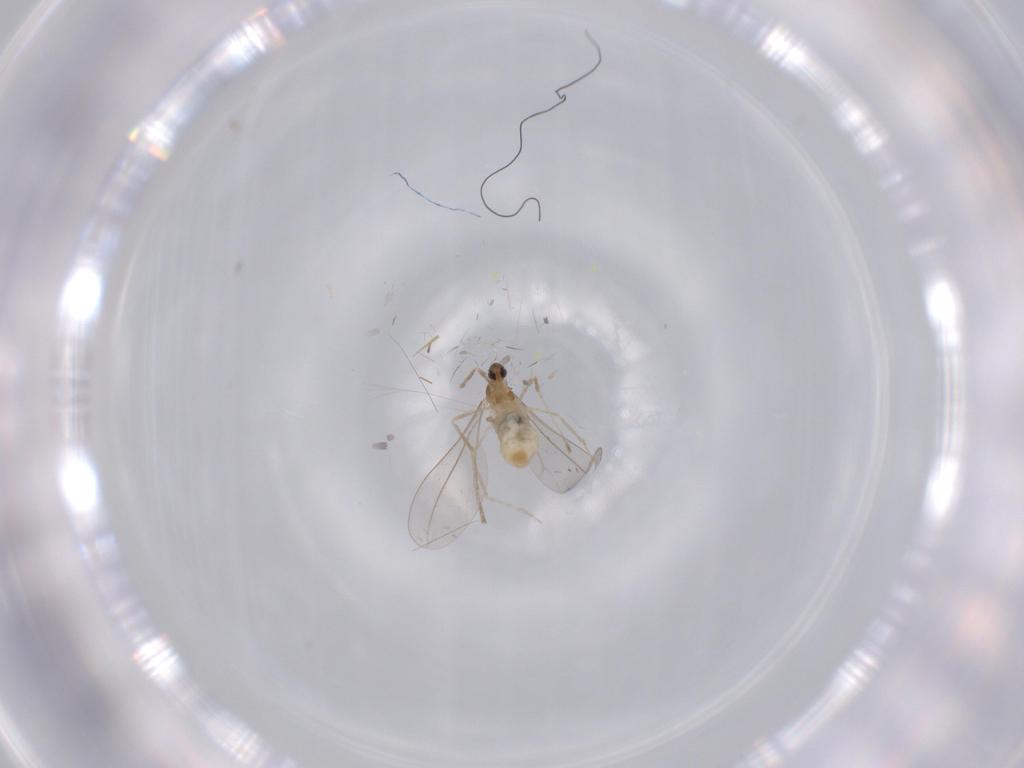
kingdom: Animalia
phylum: Arthropoda
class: Insecta
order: Diptera
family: Cecidomyiidae
